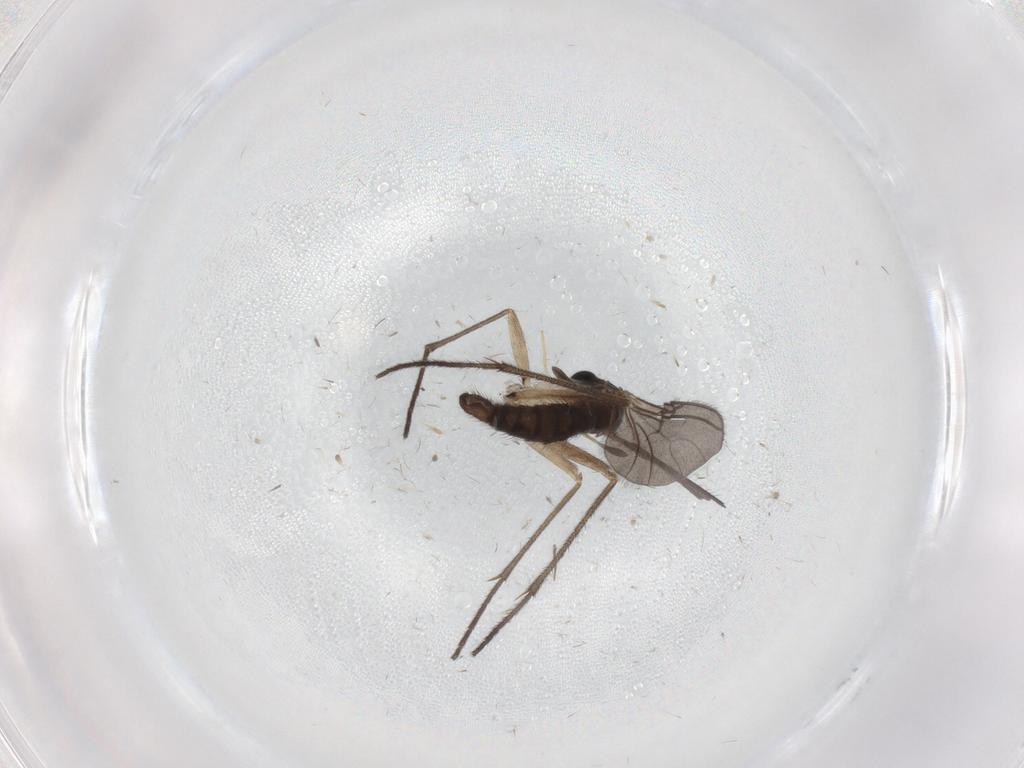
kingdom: Animalia
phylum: Arthropoda
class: Insecta
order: Diptera
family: Sciaridae
